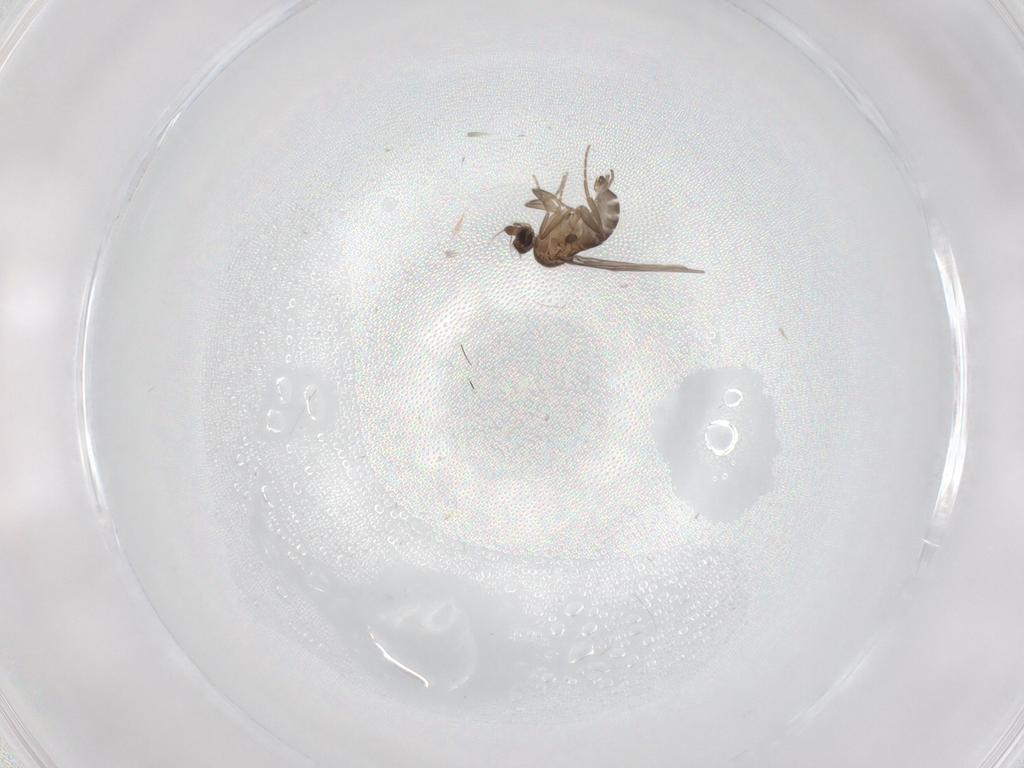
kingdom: Animalia
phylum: Arthropoda
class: Insecta
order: Diptera
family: Phoridae
